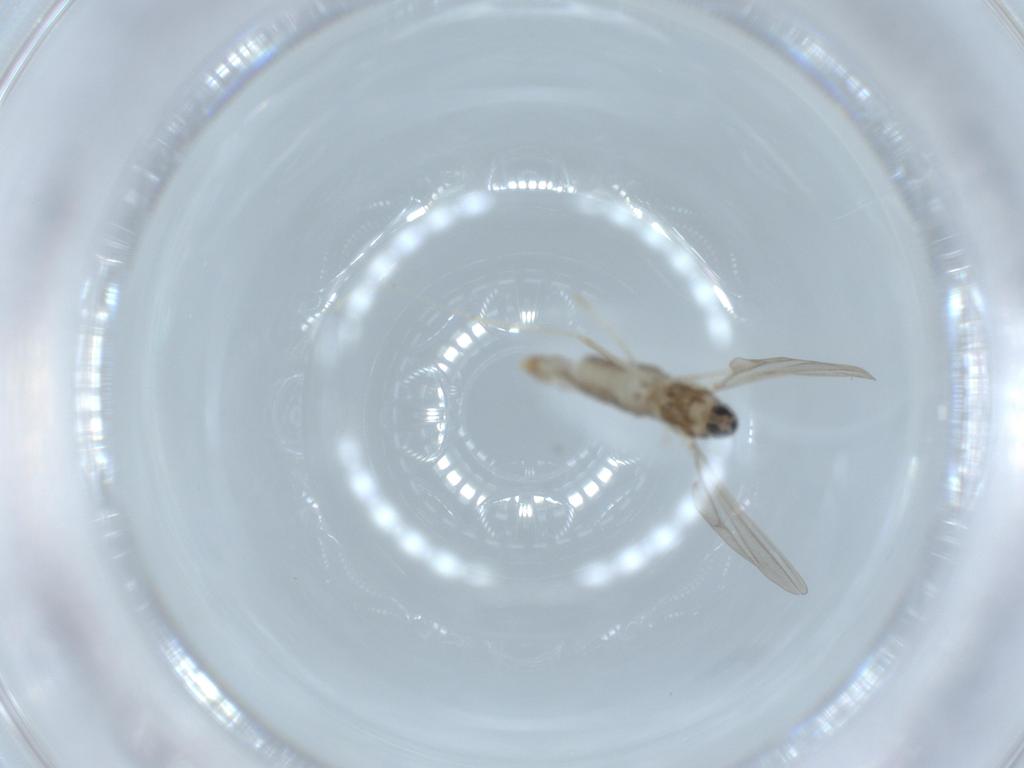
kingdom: Animalia
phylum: Arthropoda
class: Insecta
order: Diptera
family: Cecidomyiidae
